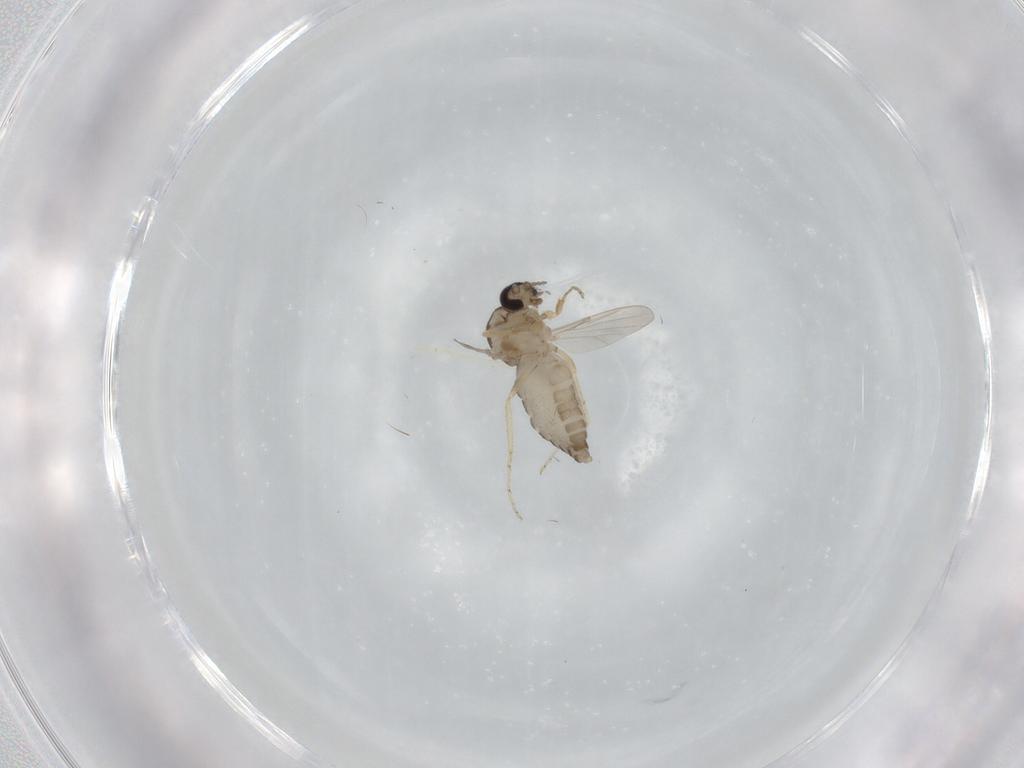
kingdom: Animalia
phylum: Arthropoda
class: Insecta
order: Diptera
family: Ceratopogonidae
